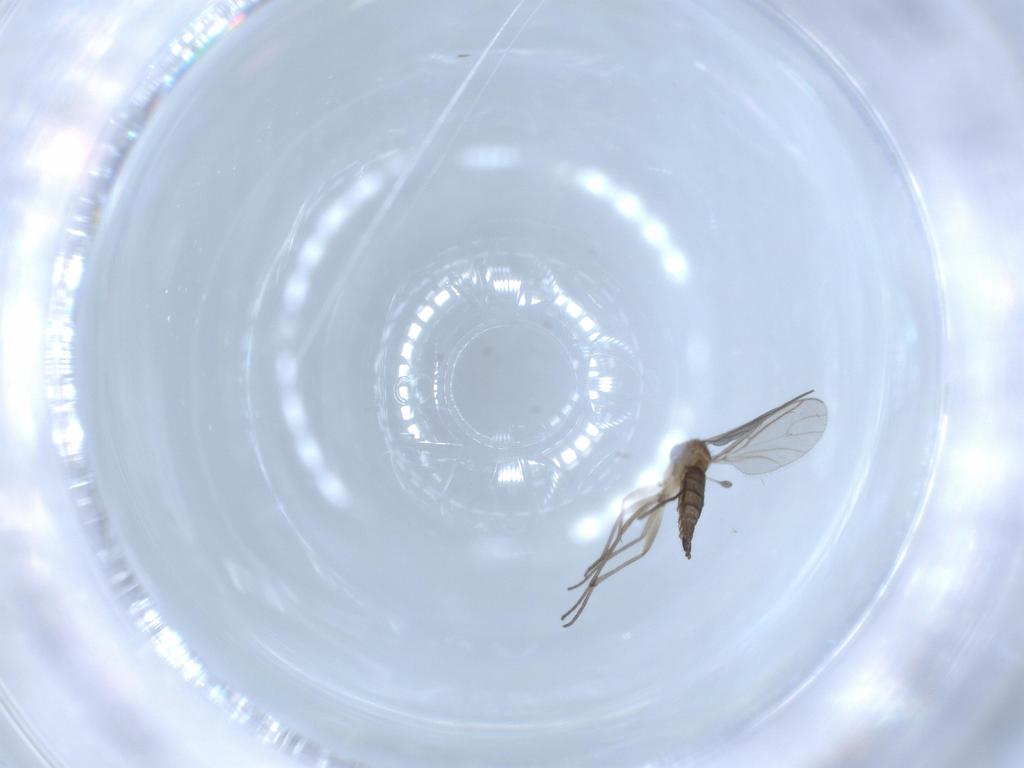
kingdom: Animalia
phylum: Arthropoda
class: Insecta
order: Diptera
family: Sciaridae
